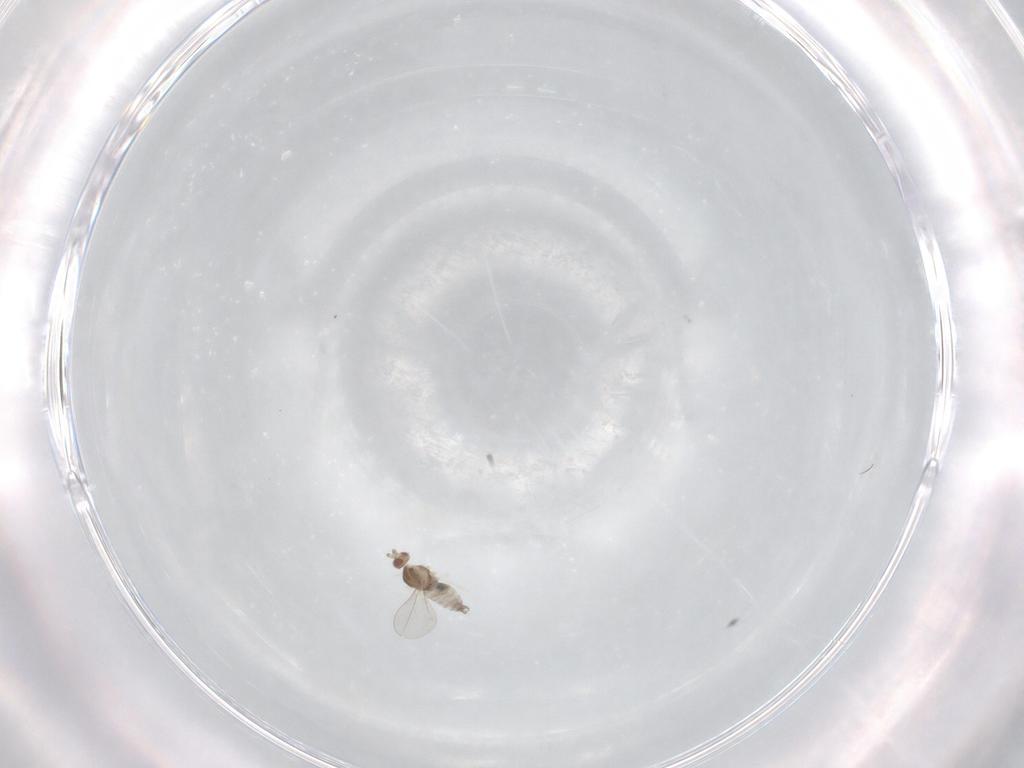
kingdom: Animalia
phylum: Arthropoda
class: Insecta
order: Diptera
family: Cecidomyiidae
